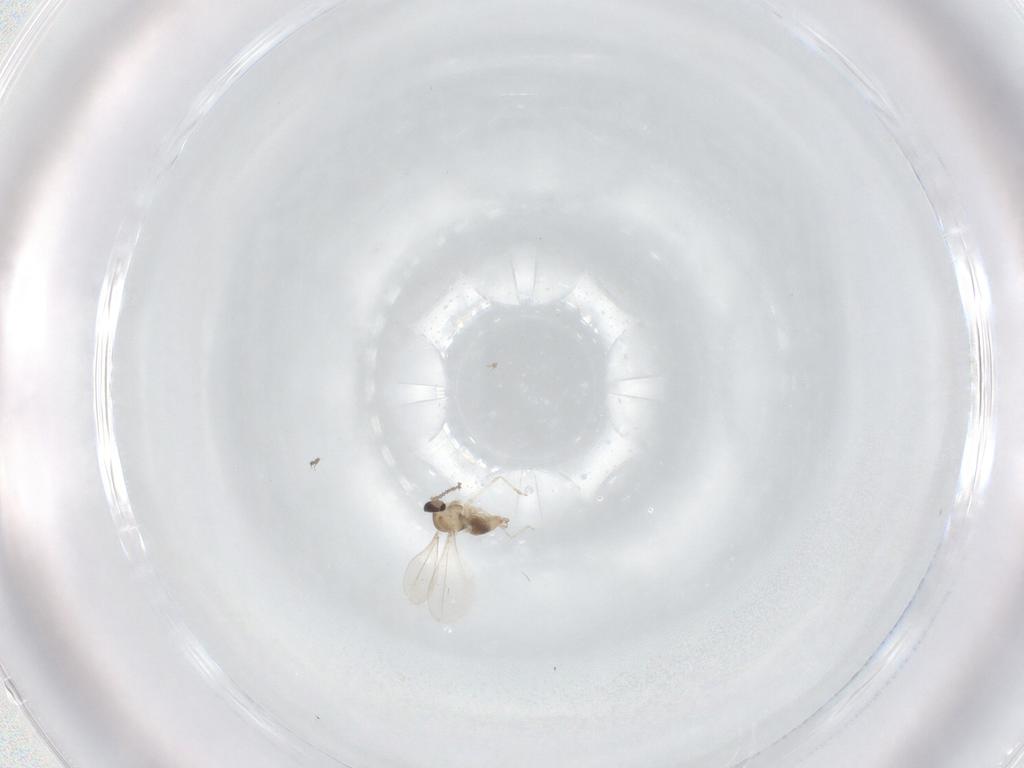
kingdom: Animalia
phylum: Arthropoda
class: Insecta
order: Diptera
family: Cecidomyiidae
